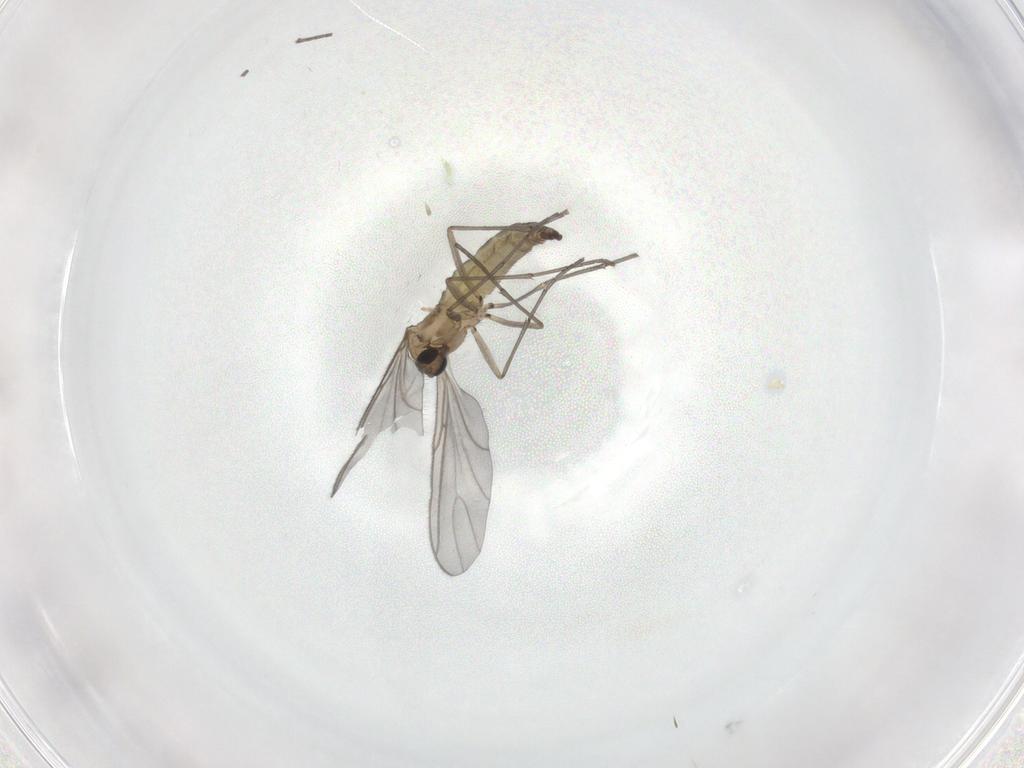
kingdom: Animalia
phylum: Arthropoda
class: Insecta
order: Diptera
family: Sciaridae
